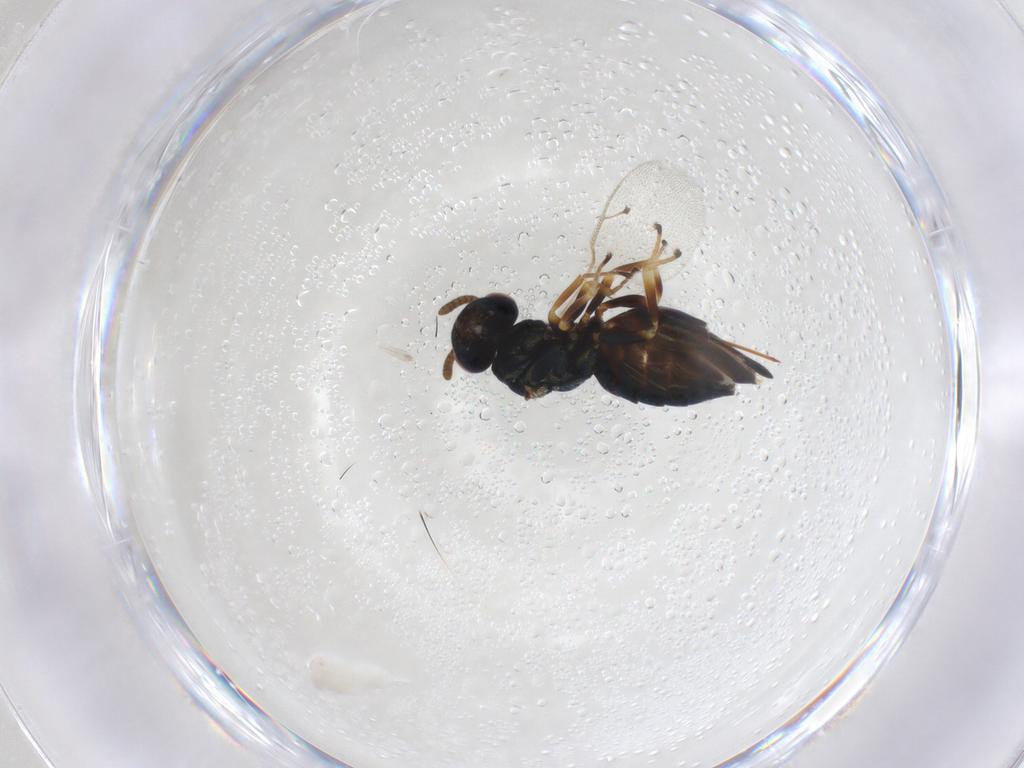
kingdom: Animalia
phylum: Arthropoda
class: Insecta
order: Hymenoptera
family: Pteromalidae
